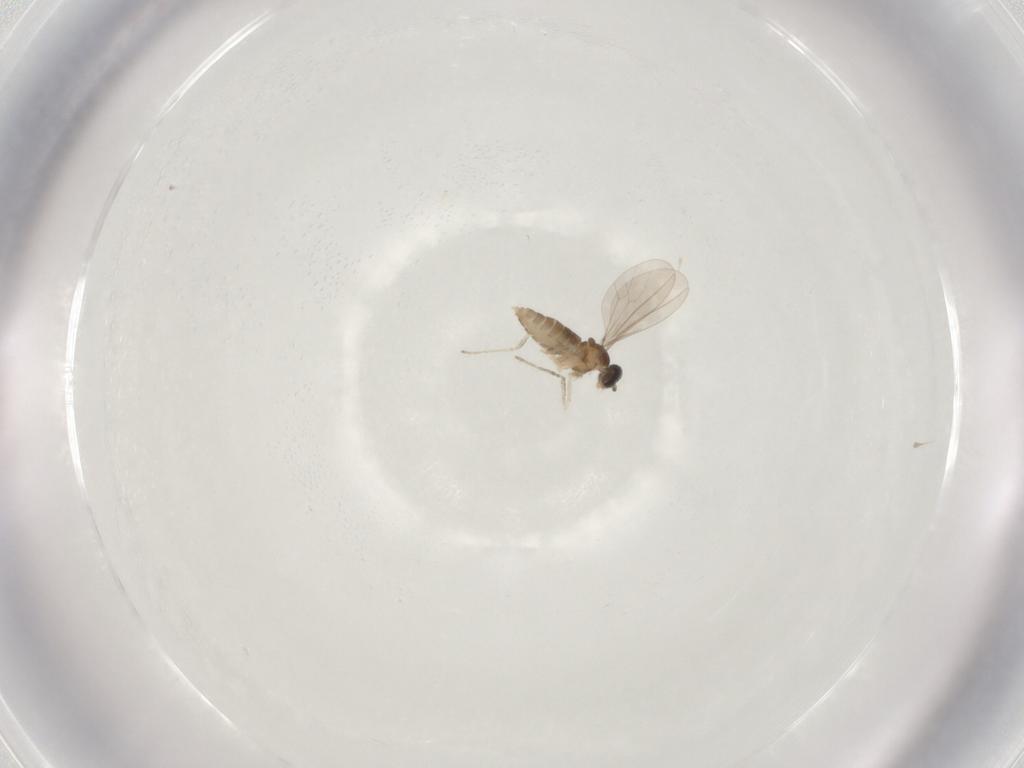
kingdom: Animalia
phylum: Arthropoda
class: Insecta
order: Diptera
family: Cecidomyiidae
